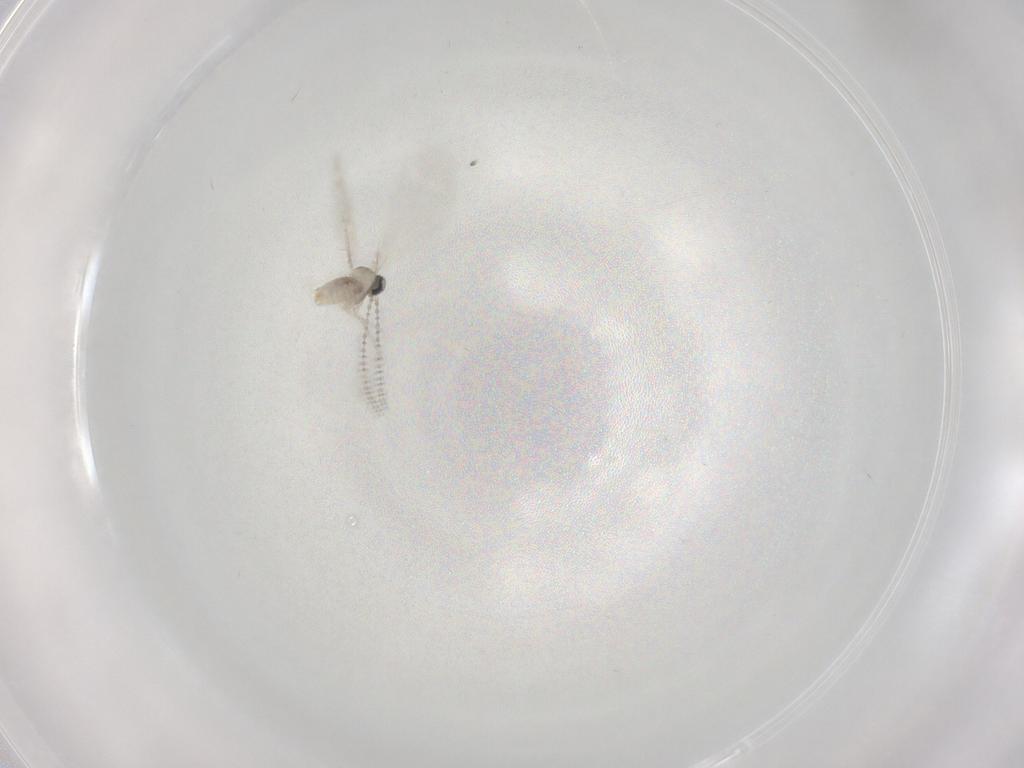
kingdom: Animalia
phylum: Arthropoda
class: Insecta
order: Diptera
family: Cecidomyiidae
